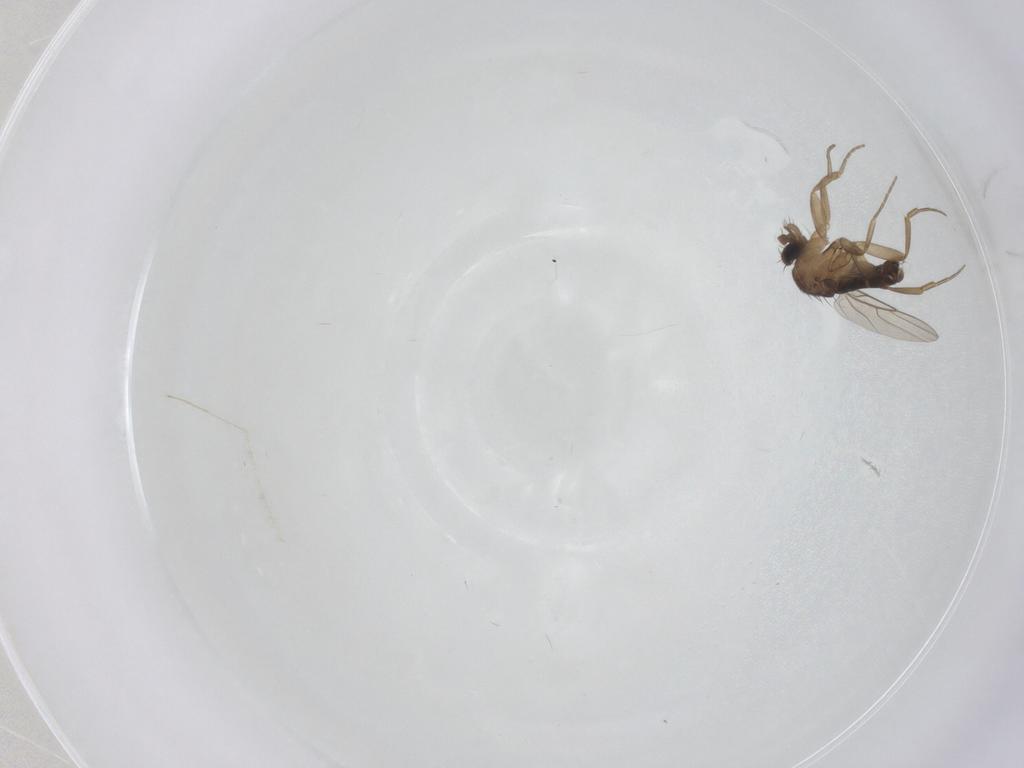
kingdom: Animalia
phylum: Arthropoda
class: Insecta
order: Diptera
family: Phoridae
